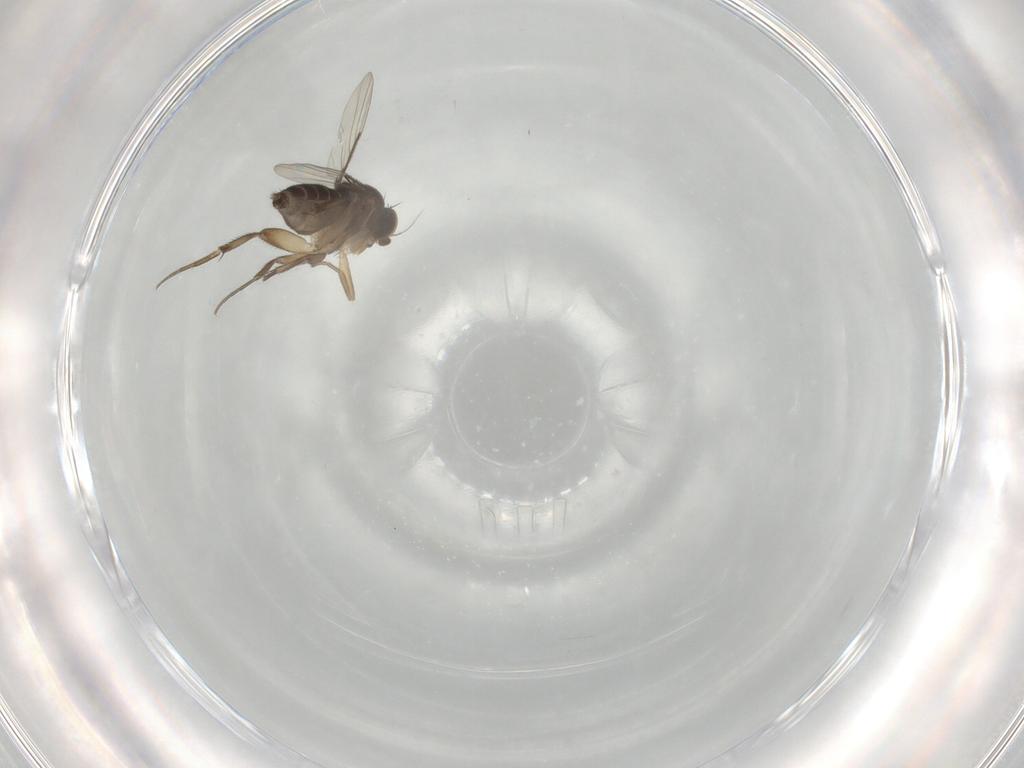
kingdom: Animalia
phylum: Arthropoda
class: Insecta
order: Diptera
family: Phoridae
